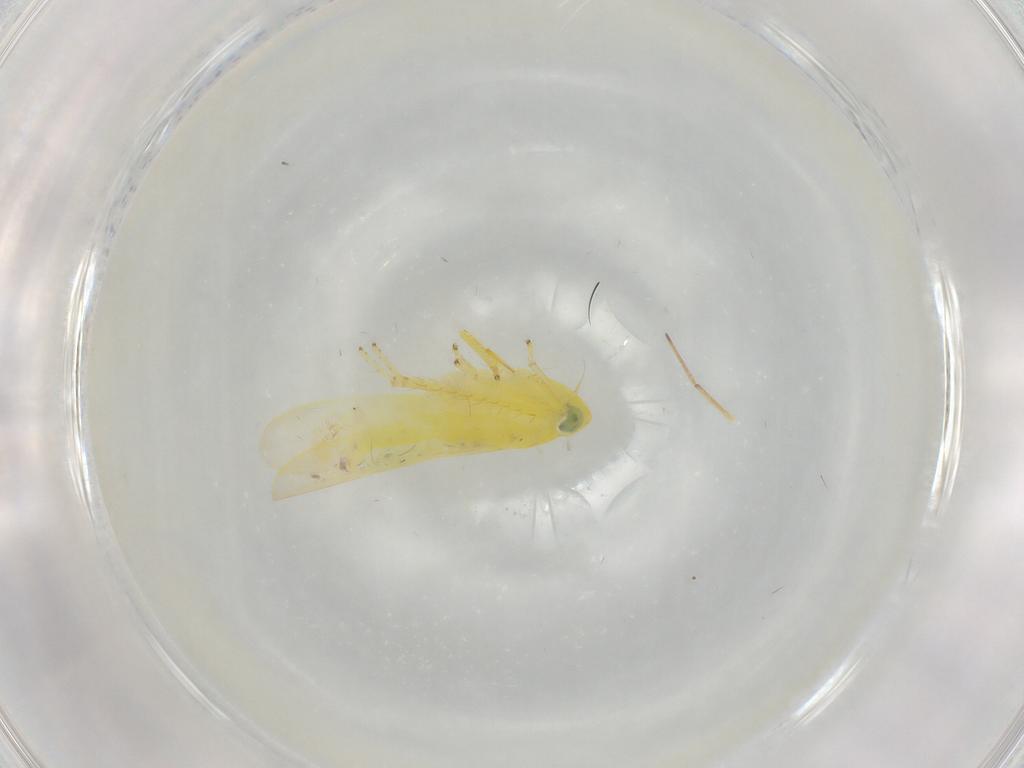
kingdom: Animalia
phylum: Arthropoda
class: Insecta
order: Hemiptera
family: Cicadellidae
